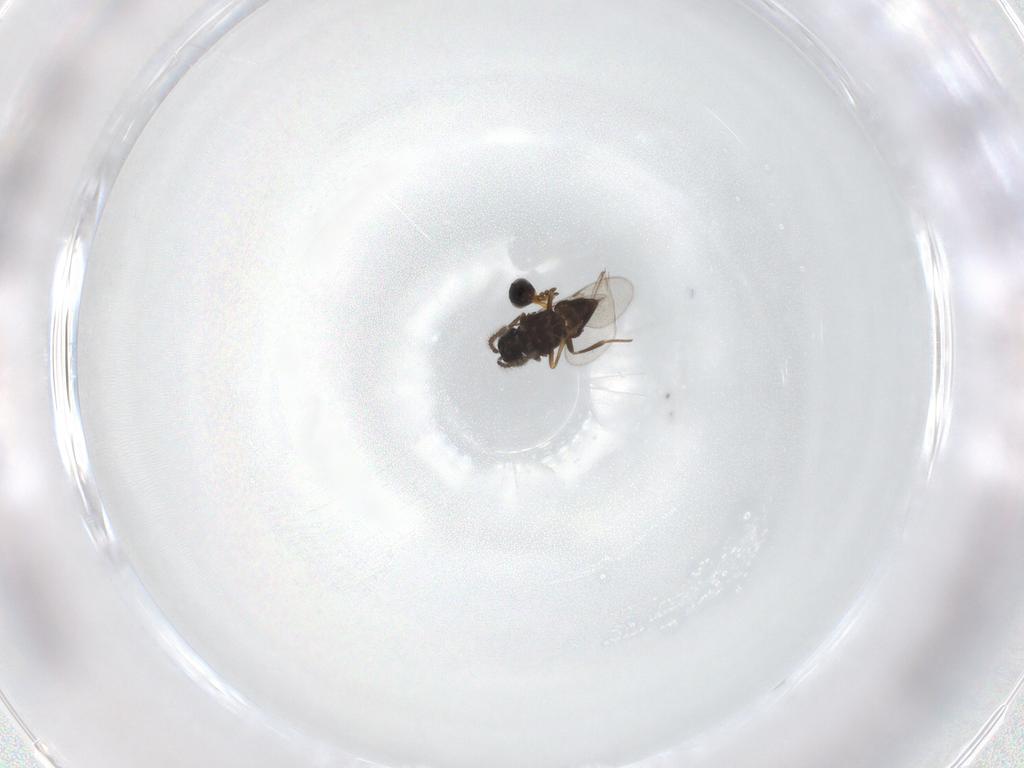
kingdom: Animalia
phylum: Arthropoda
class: Insecta
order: Hymenoptera
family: Platygastridae
